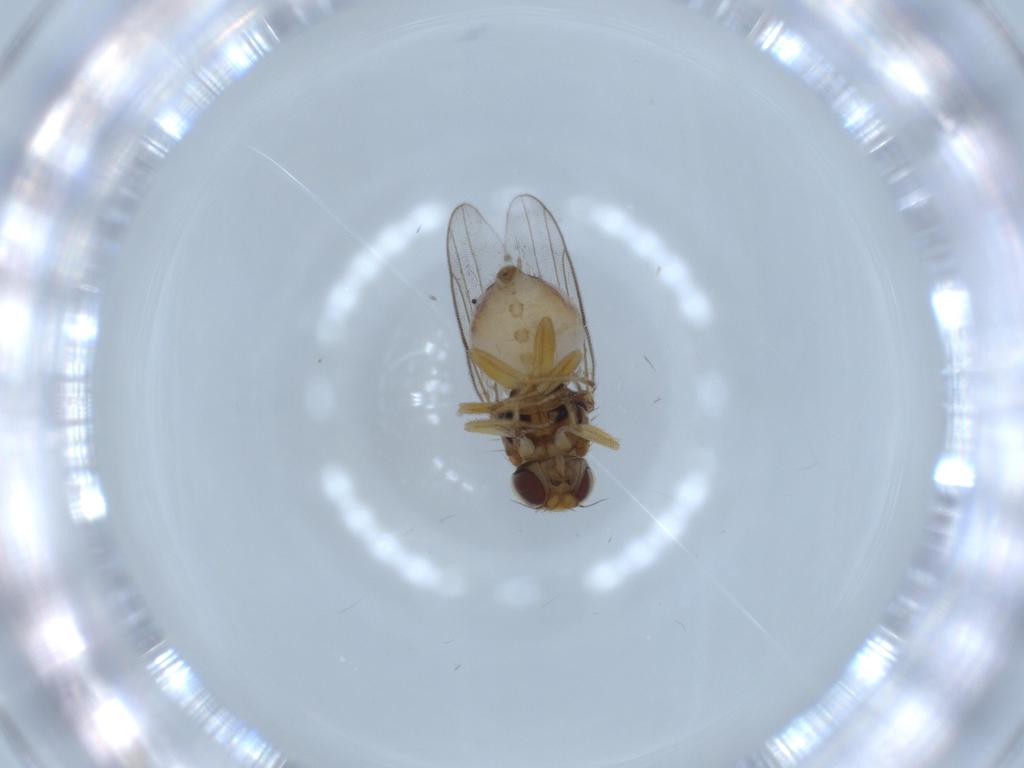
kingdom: Animalia
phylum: Arthropoda
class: Insecta
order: Diptera
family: Chloropidae
